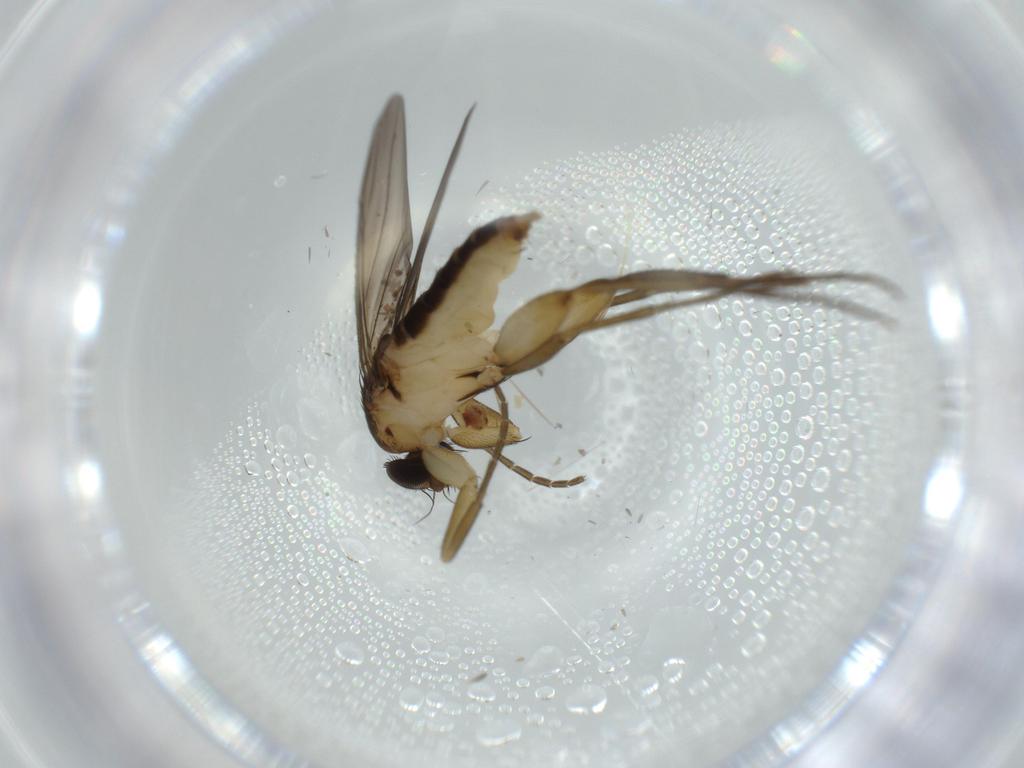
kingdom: Animalia
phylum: Arthropoda
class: Insecta
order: Diptera
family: Phoridae
